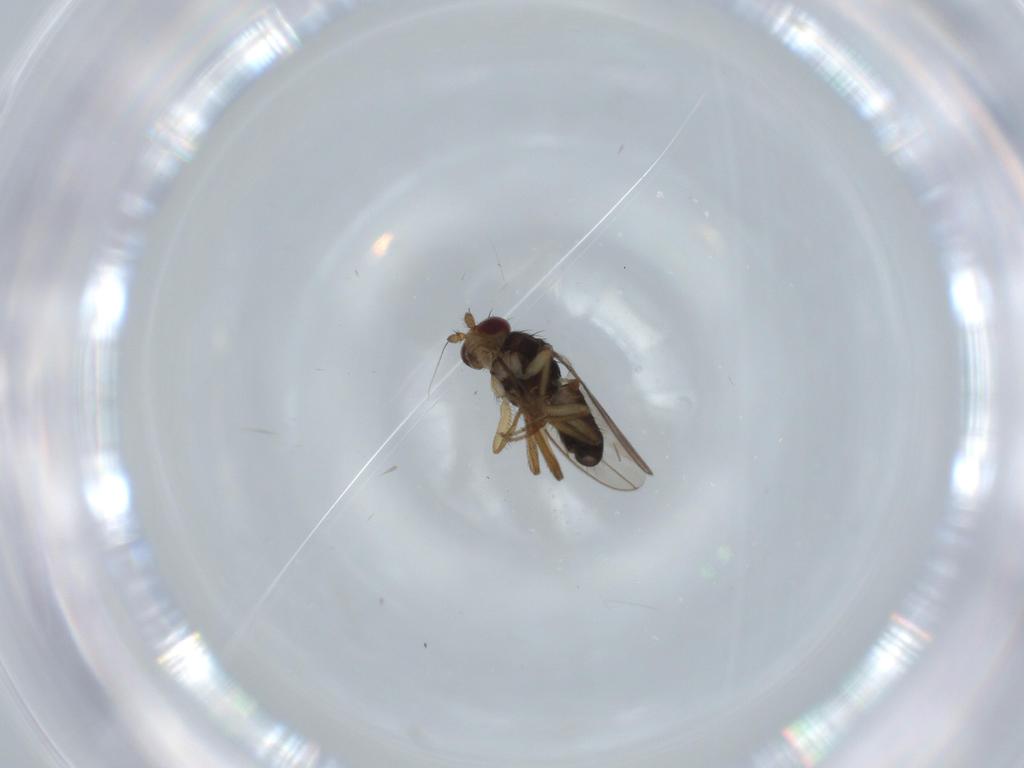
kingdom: Animalia
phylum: Arthropoda
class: Insecta
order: Diptera
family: Sphaeroceridae
